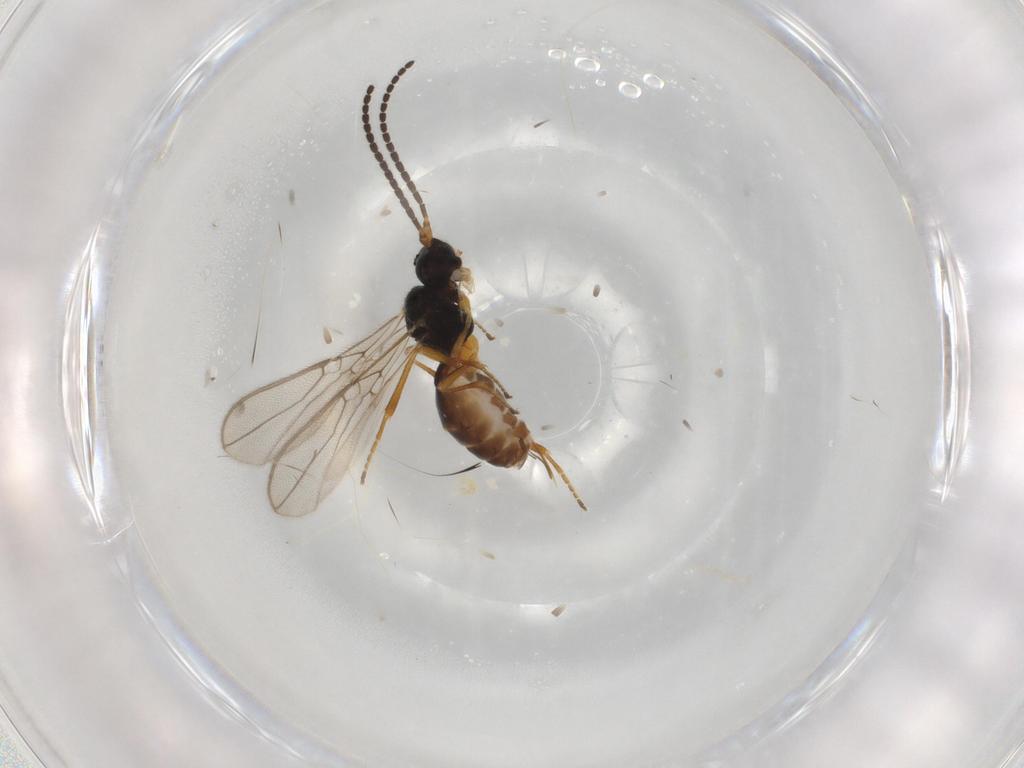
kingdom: Animalia
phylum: Arthropoda
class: Insecta
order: Hymenoptera
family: Braconidae
